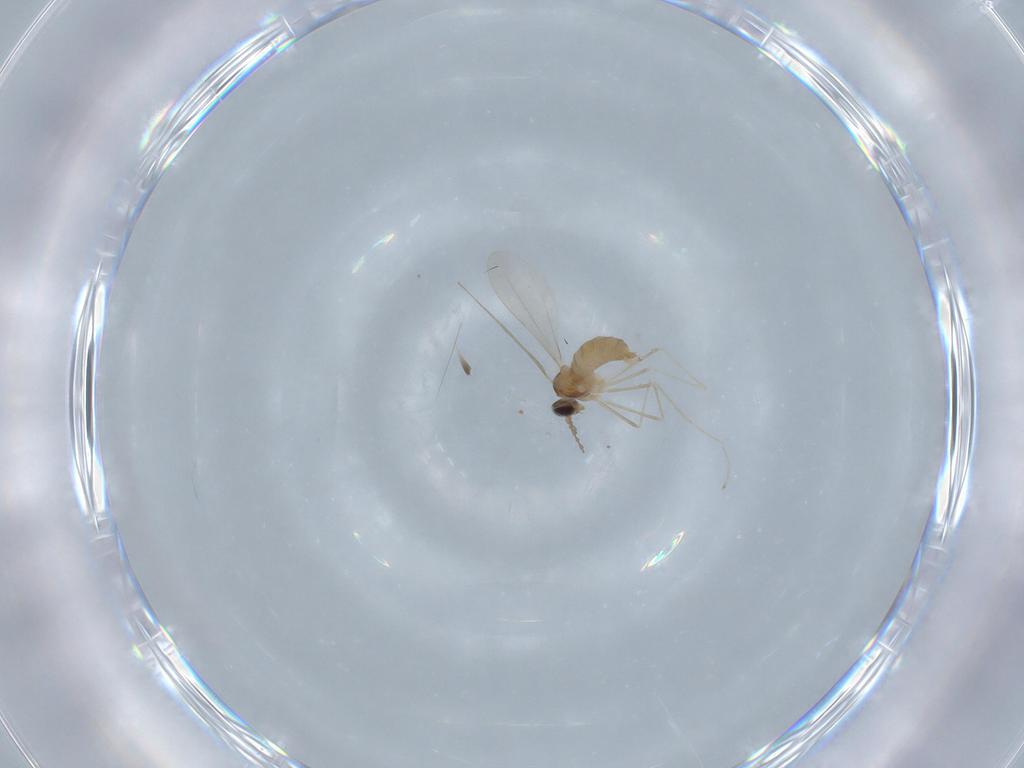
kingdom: Animalia
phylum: Arthropoda
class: Insecta
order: Diptera
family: Cecidomyiidae
